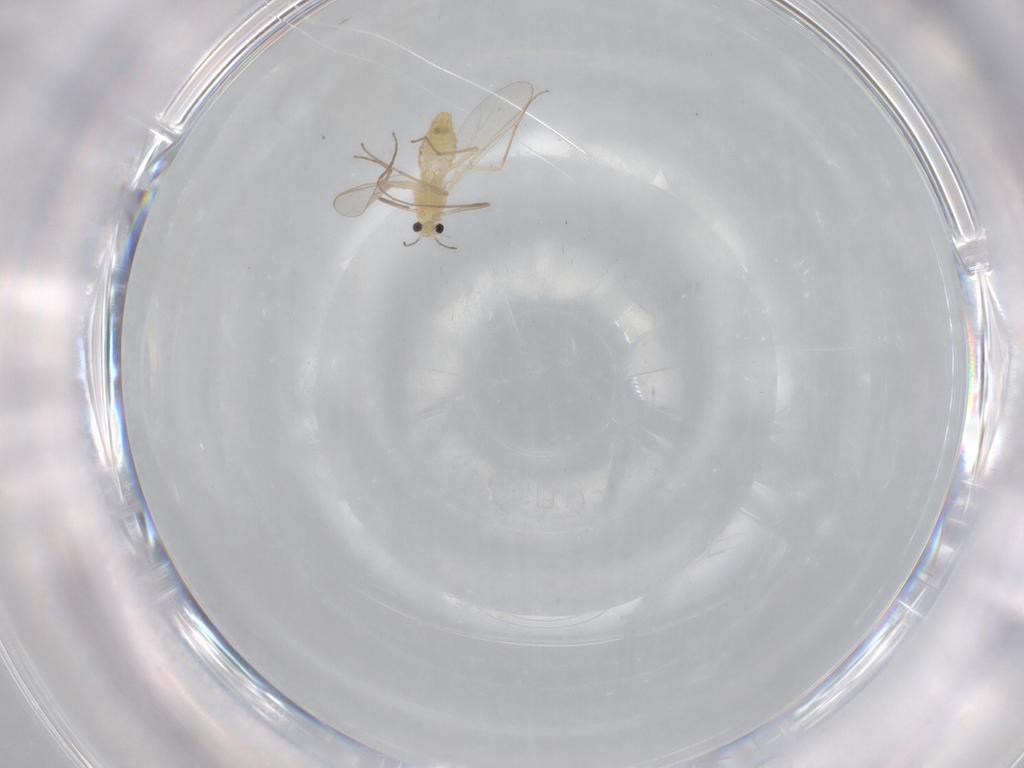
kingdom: Animalia
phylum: Arthropoda
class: Insecta
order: Diptera
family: Chironomidae
